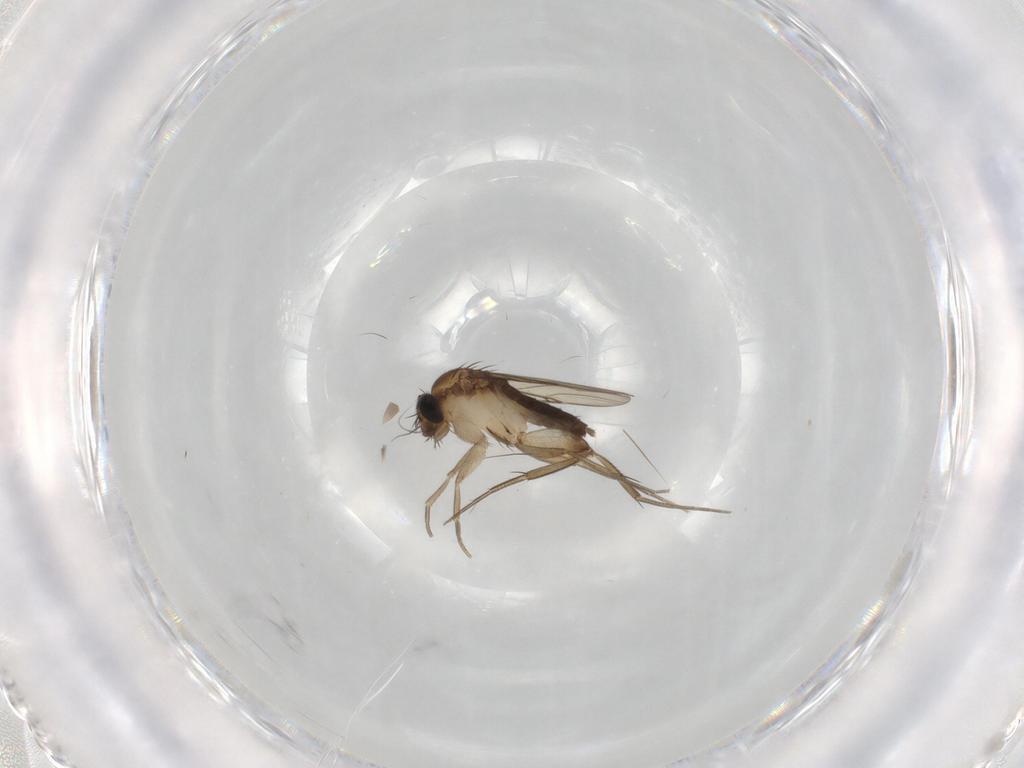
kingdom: Animalia
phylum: Arthropoda
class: Insecta
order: Diptera
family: Phoridae
